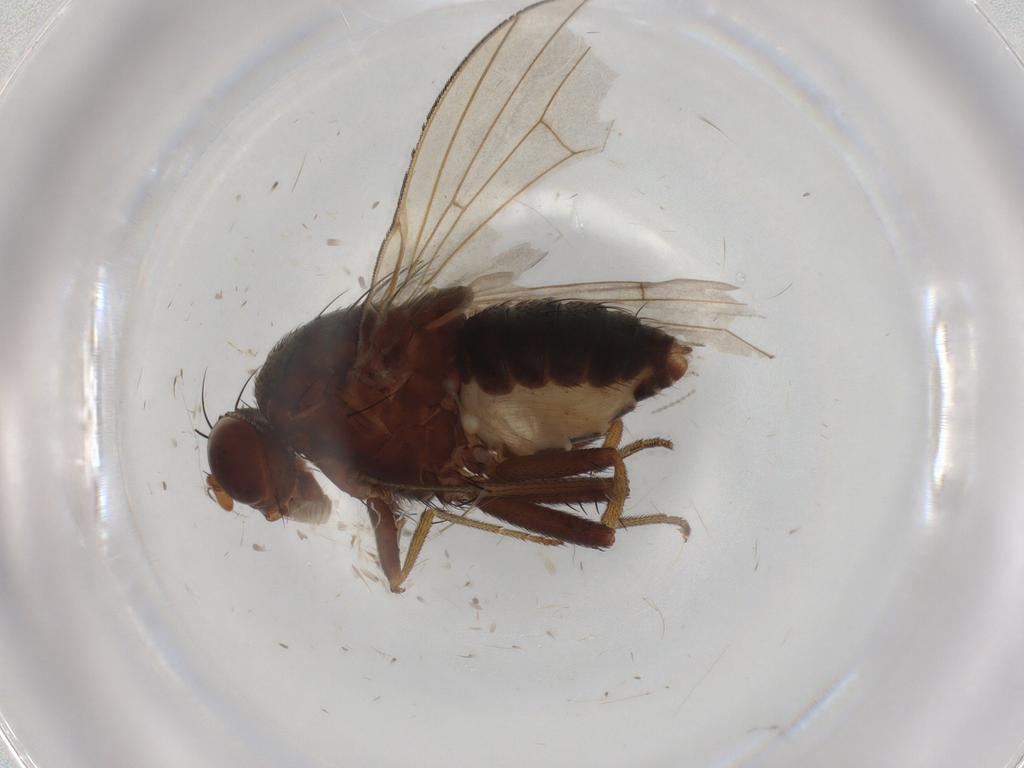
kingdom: Animalia
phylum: Arthropoda
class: Insecta
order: Diptera
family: Sciaridae
